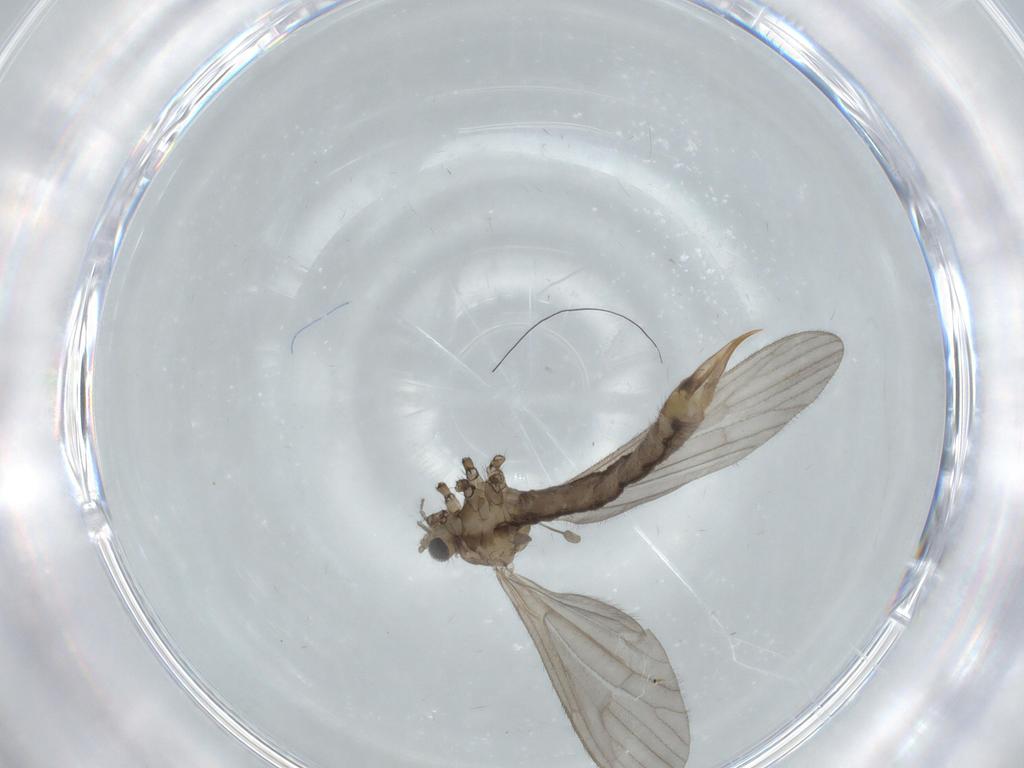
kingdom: Animalia
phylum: Arthropoda
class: Insecta
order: Diptera
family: Limoniidae
